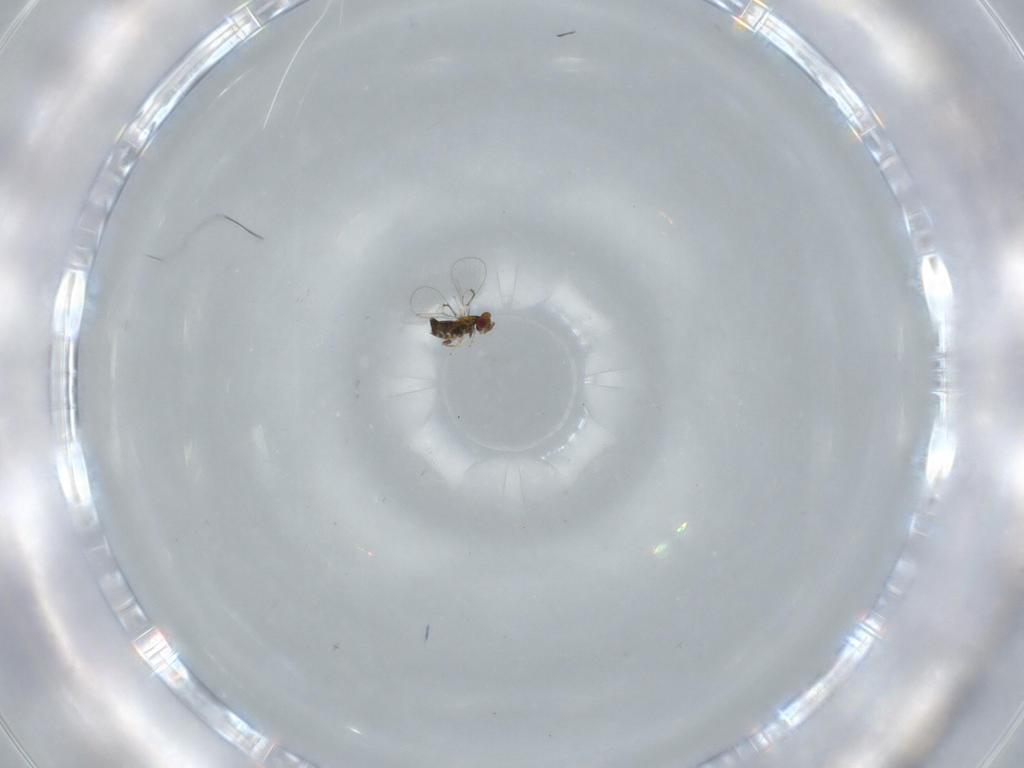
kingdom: Animalia
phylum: Arthropoda
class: Insecta
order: Hymenoptera
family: Trichogrammatidae
